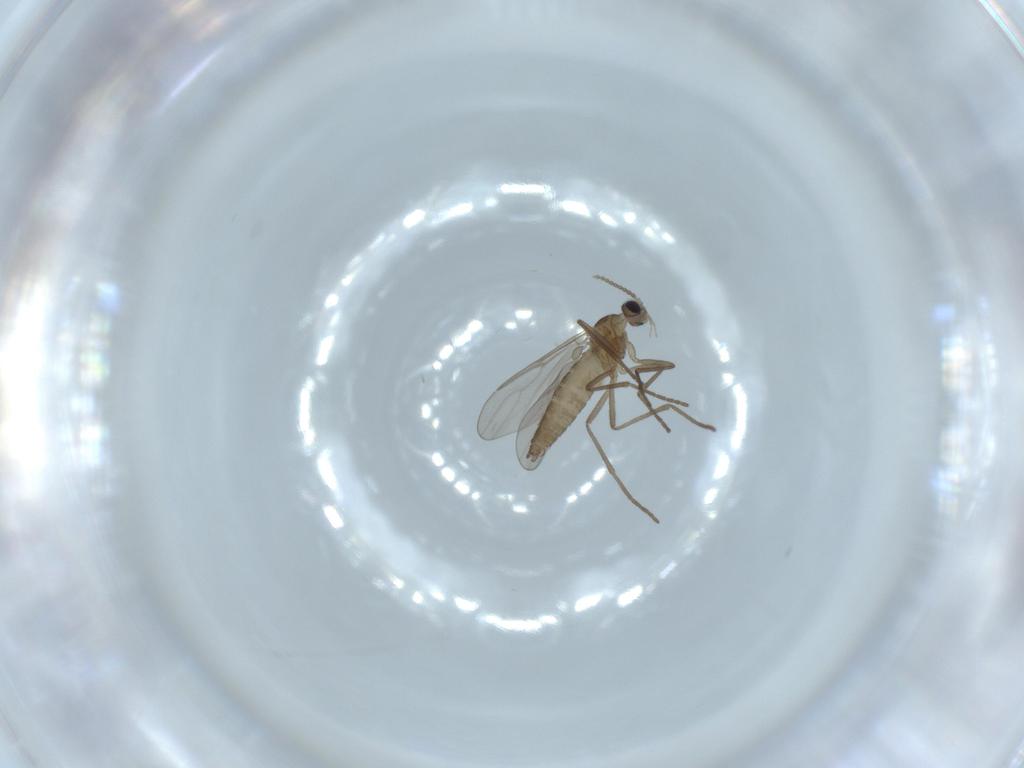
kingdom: Animalia
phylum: Arthropoda
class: Insecta
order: Diptera
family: Cecidomyiidae
